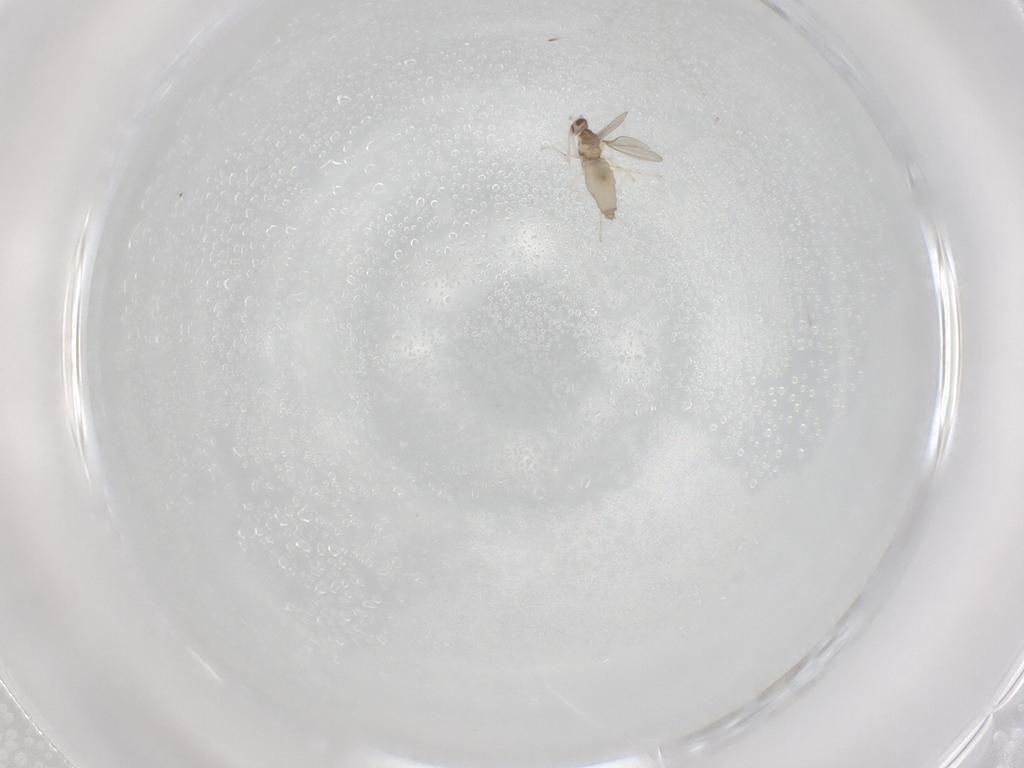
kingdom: Animalia
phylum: Arthropoda
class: Insecta
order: Diptera
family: Cecidomyiidae
